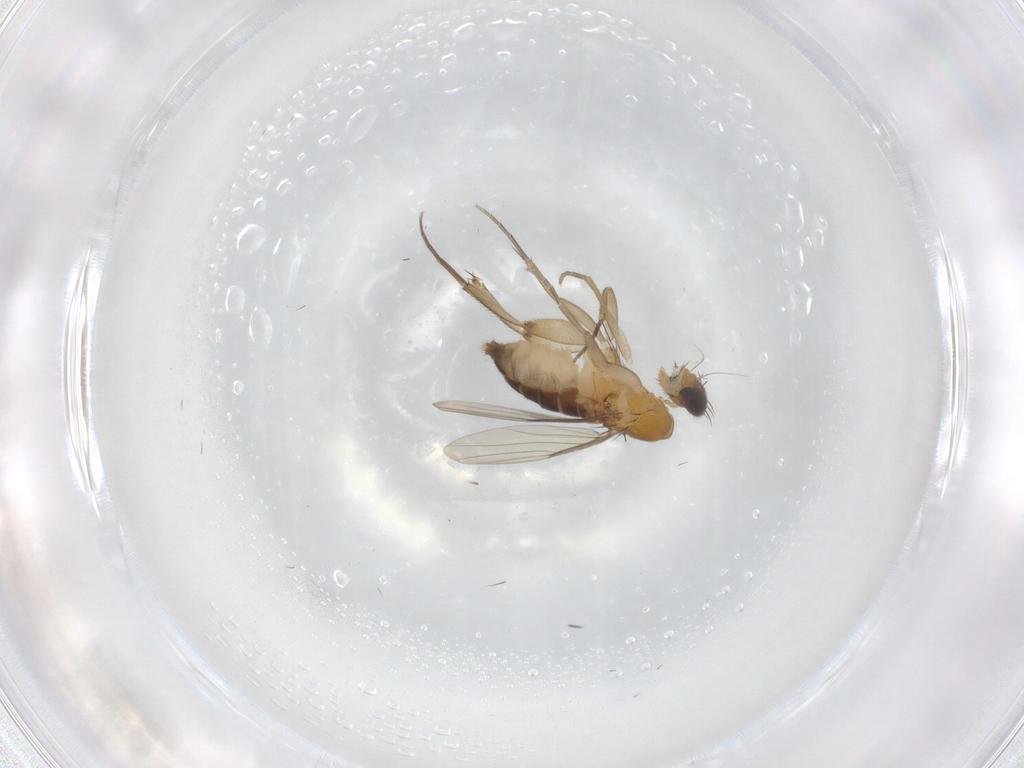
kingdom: Animalia
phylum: Arthropoda
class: Insecta
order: Diptera
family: Phoridae
